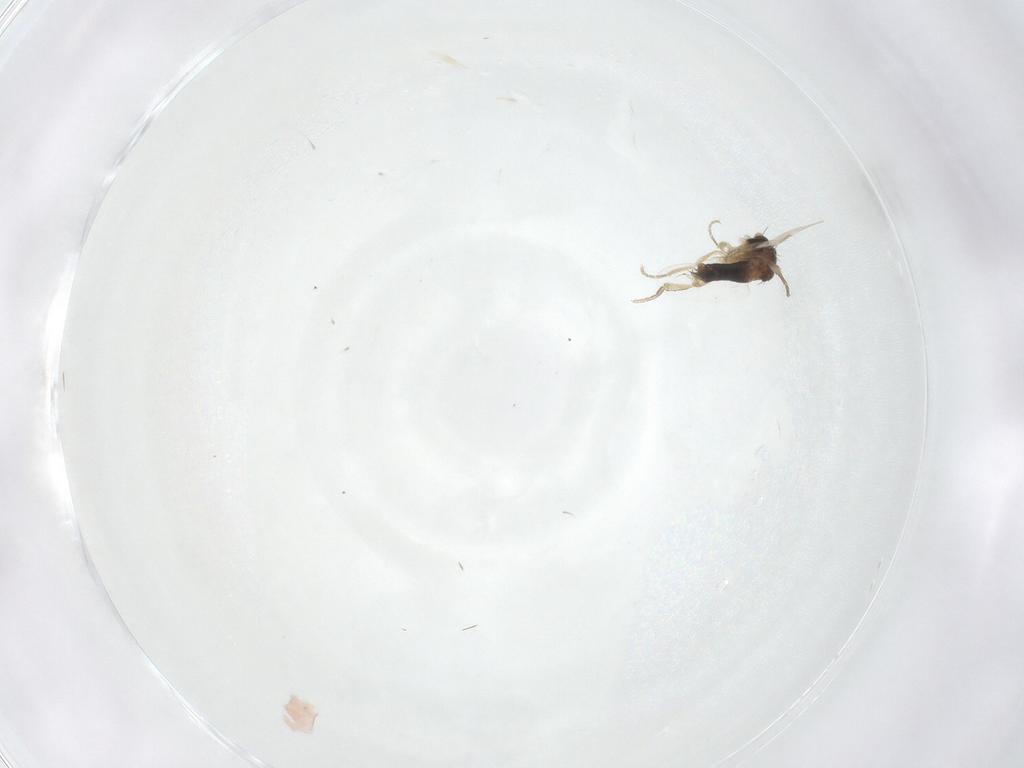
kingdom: Animalia
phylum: Arthropoda
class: Insecta
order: Diptera
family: Phoridae
